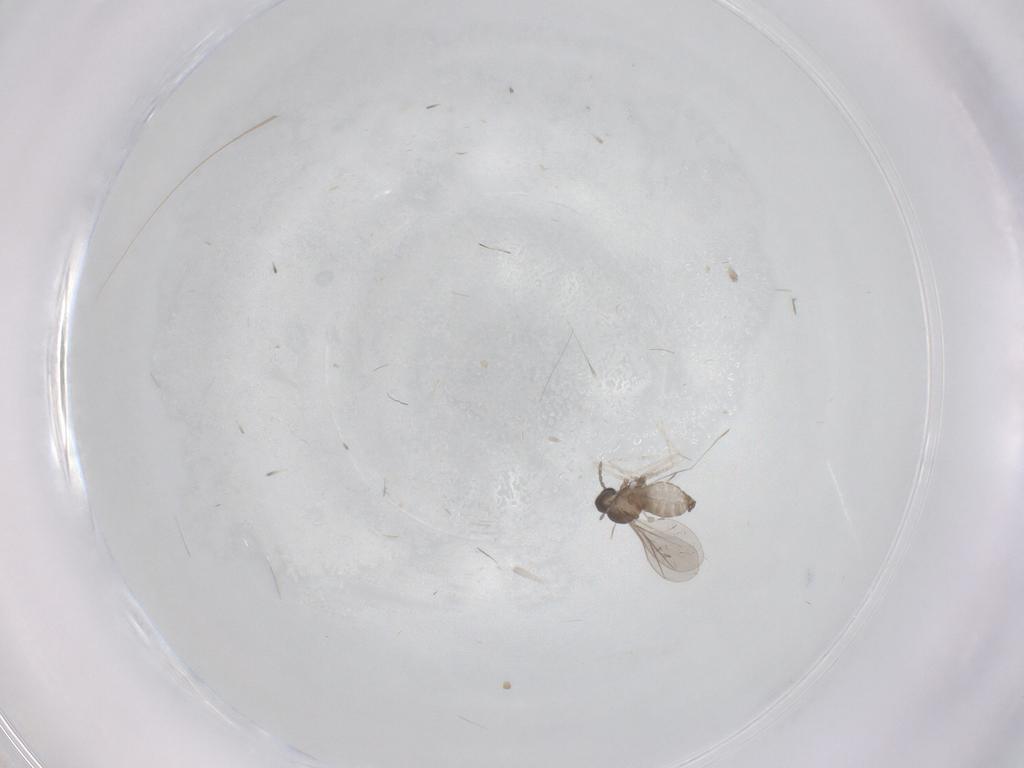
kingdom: Animalia
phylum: Arthropoda
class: Insecta
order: Diptera
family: Cecidomyiidae
